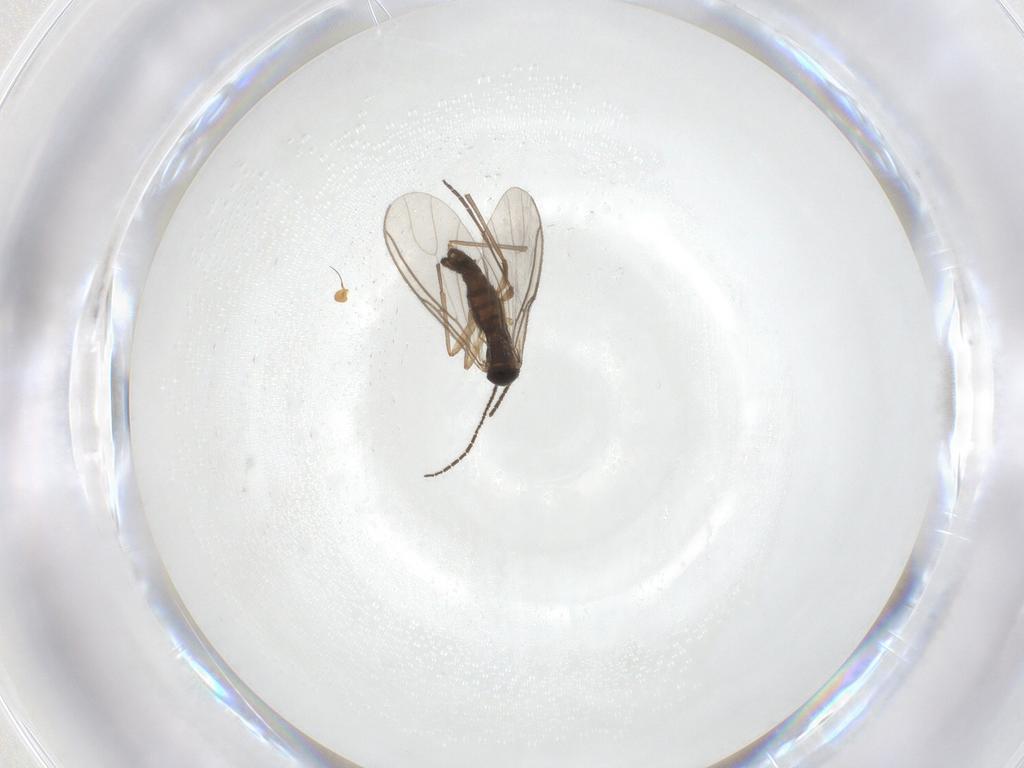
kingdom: Animalia
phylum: Arthropoda
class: Insecta
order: Diptera
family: Sciaridae
